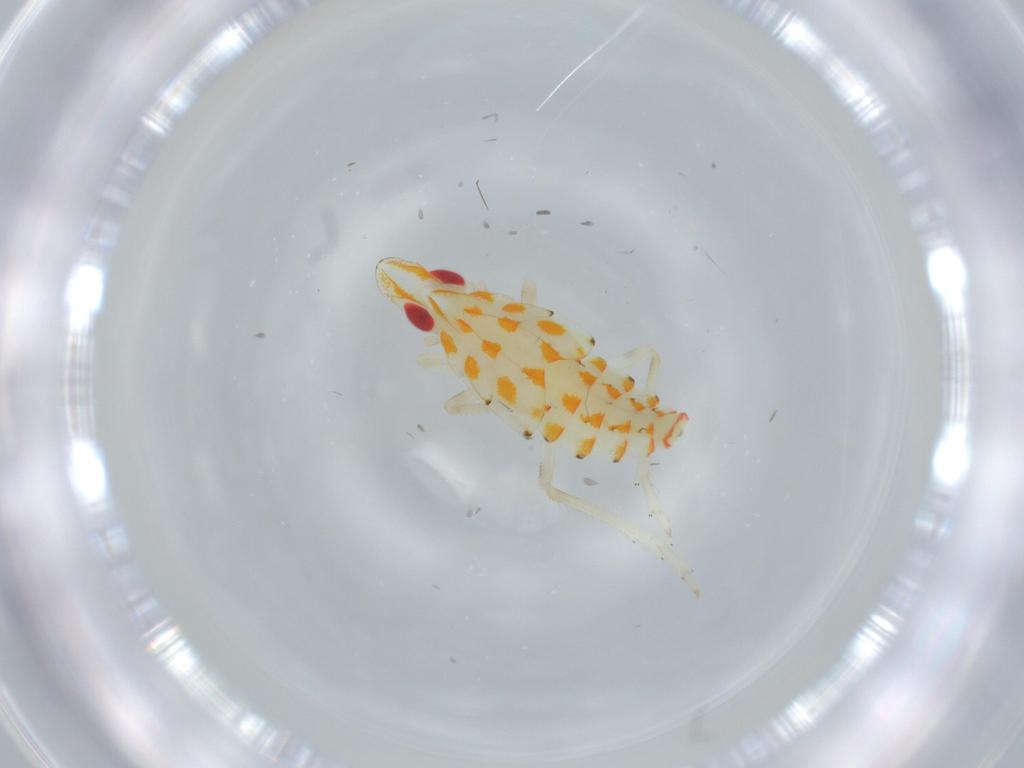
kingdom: Animalia
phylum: Arthropoda
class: Insecta
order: Hemiptera
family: Tropiduchidae
